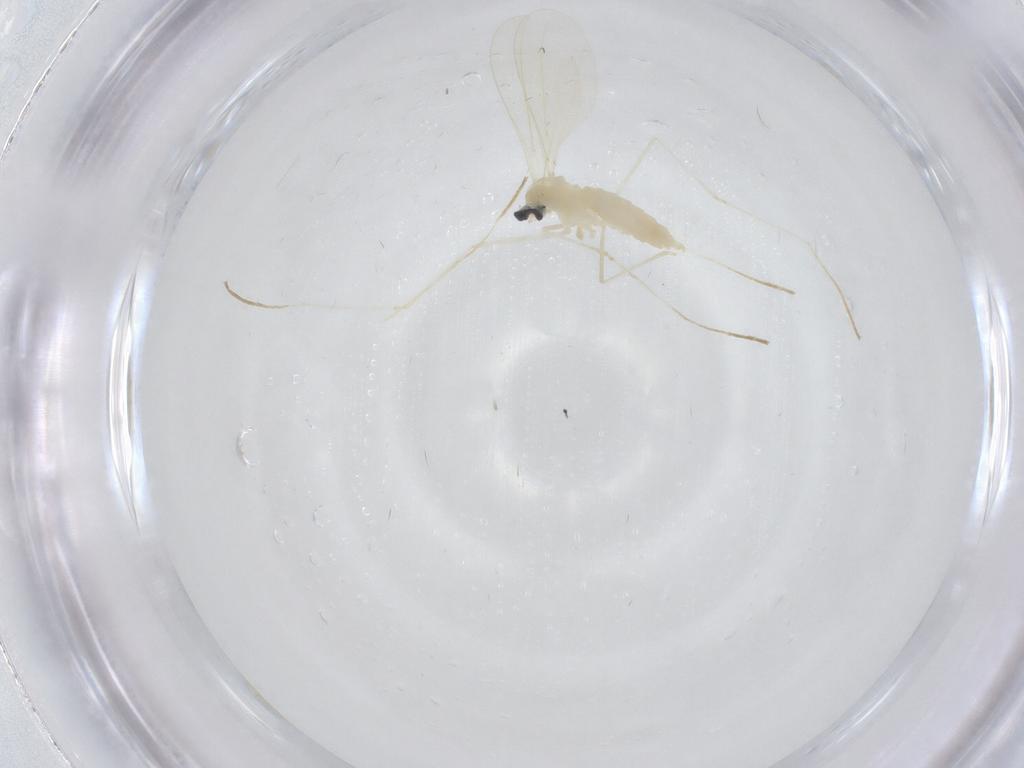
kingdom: Animalia
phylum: Arthropoda
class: Insecta
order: Diptera
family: Cecidomyiidae
